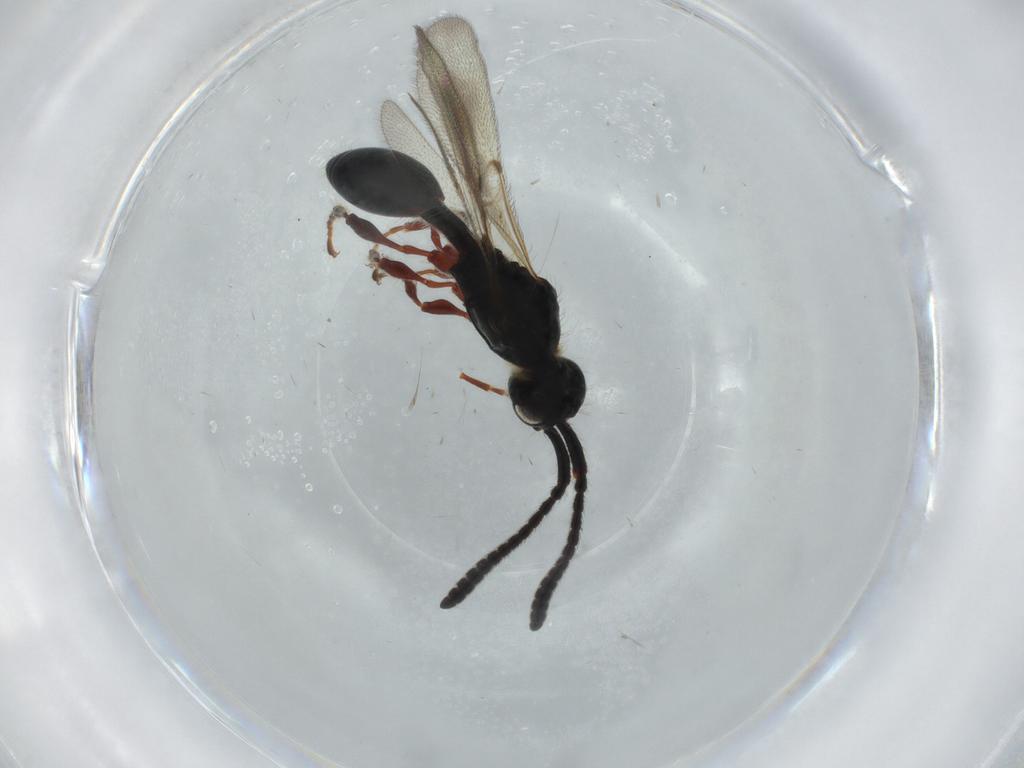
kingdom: Animalia
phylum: Arthropoda
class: Insecta
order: Hymenoptera
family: Diapriidae
